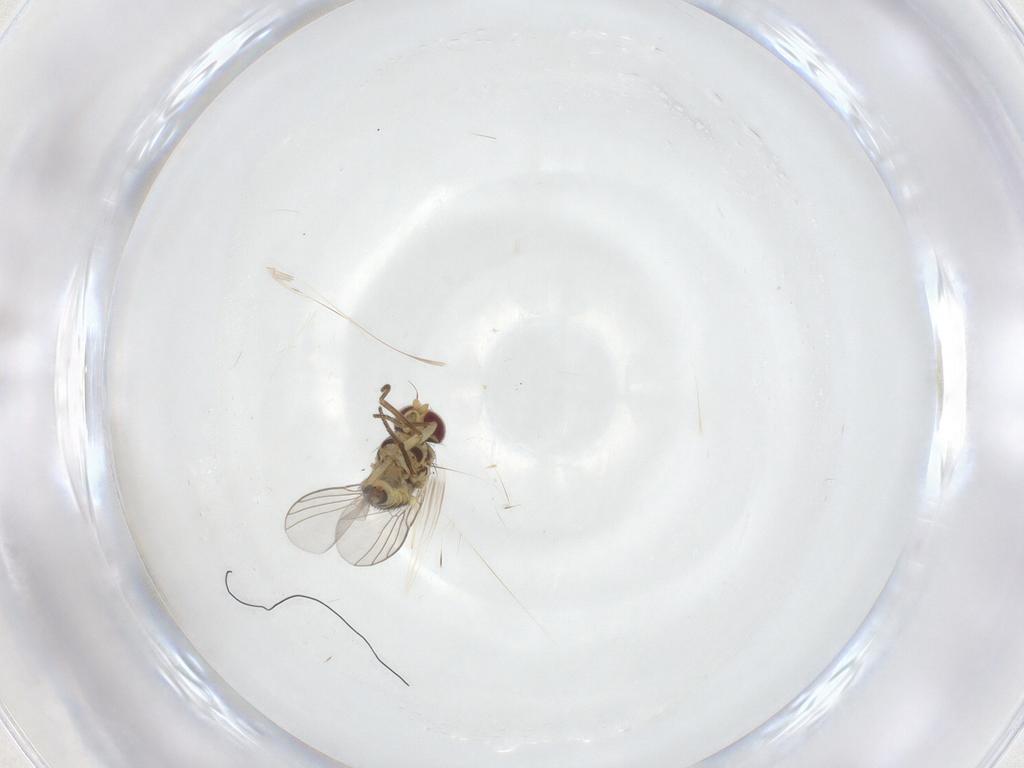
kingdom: Animalia
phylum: Arthropoda
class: Insecta
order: Diptera
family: Agromyzidae
